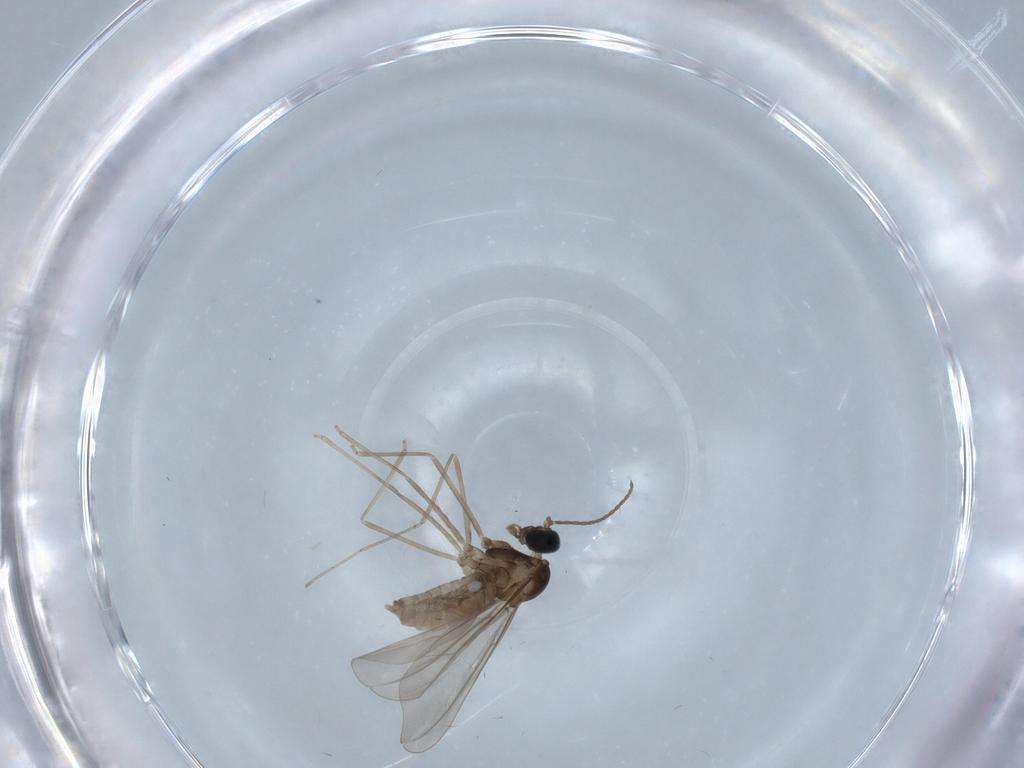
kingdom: Animalia
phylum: Arthropoda
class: Insecta
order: Diptera
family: Cecidomyiidae
